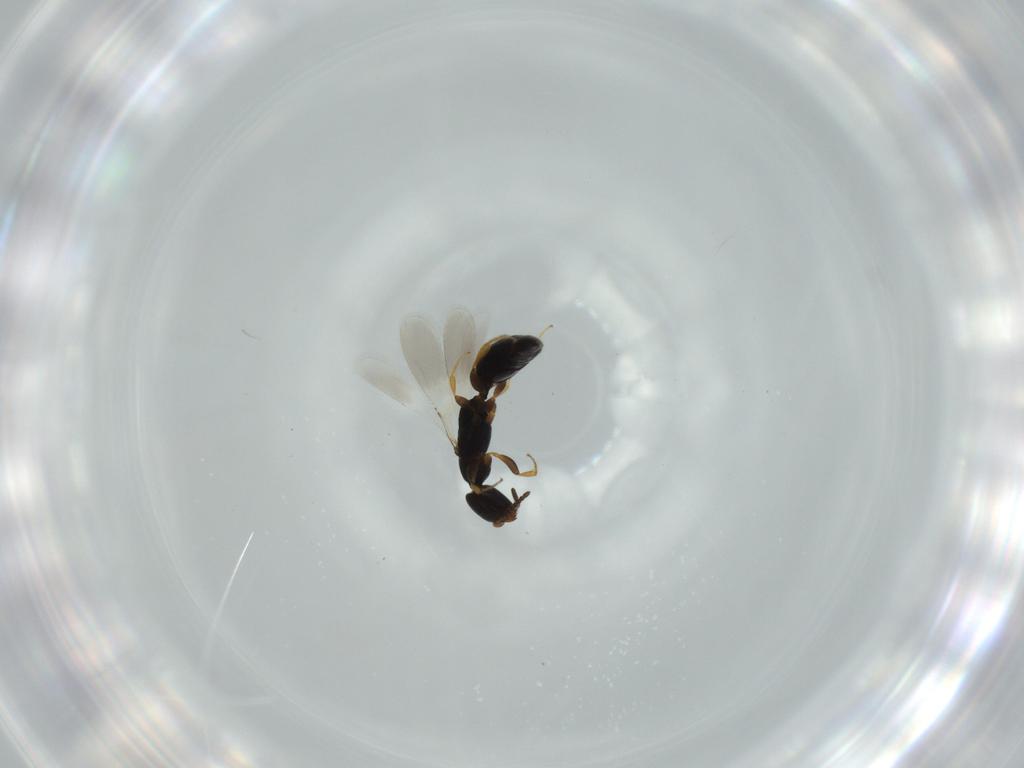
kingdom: Animalia
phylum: Arthropoda
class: Insecta
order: Hymenoptera
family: Bethylidae
